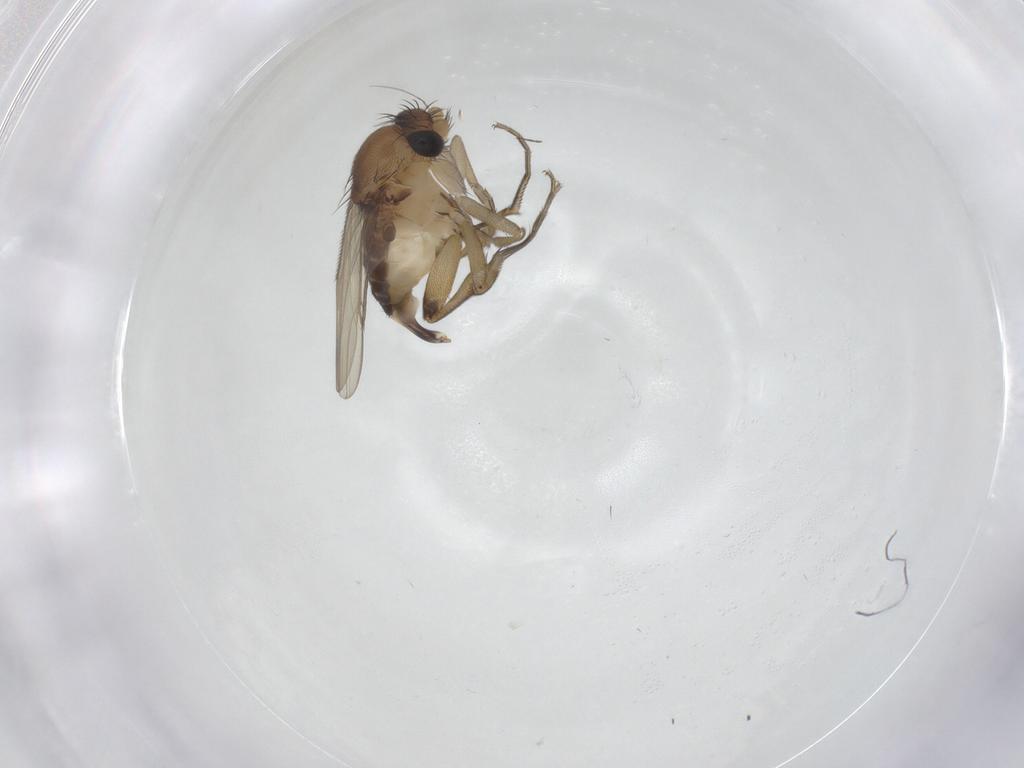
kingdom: Animalia
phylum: Arthropoda
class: Insecta
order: Diptera
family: Phoridae
